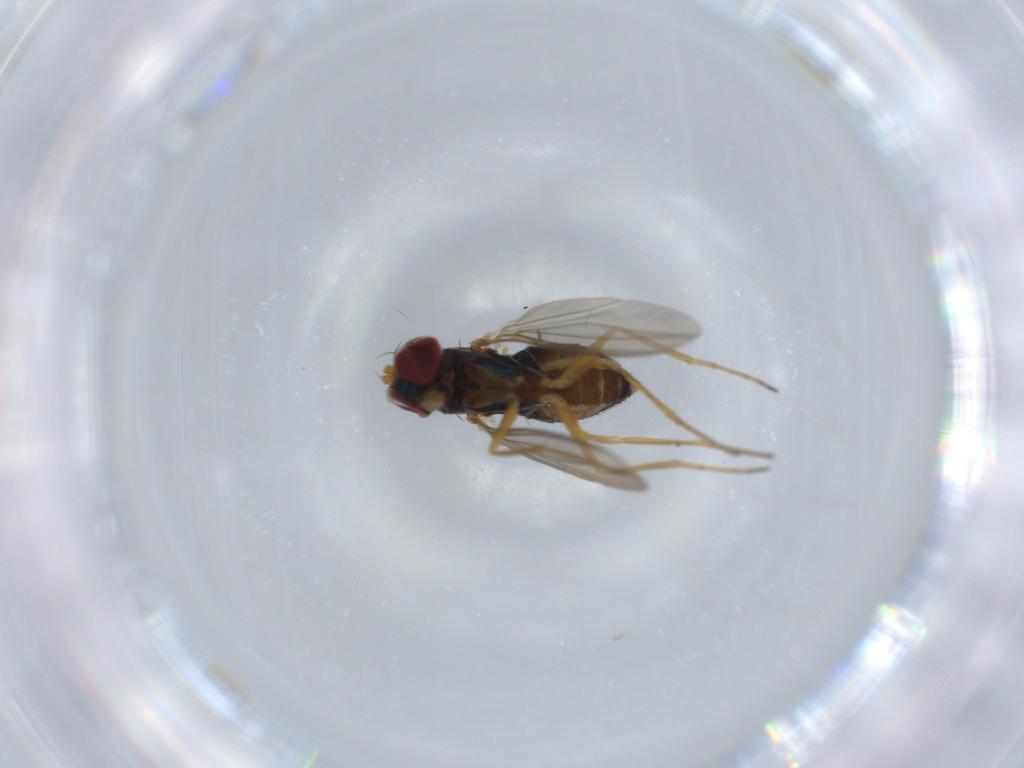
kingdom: Animalia
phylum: Arthropoda
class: Insecta
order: Diptera
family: Dolichopodidae
